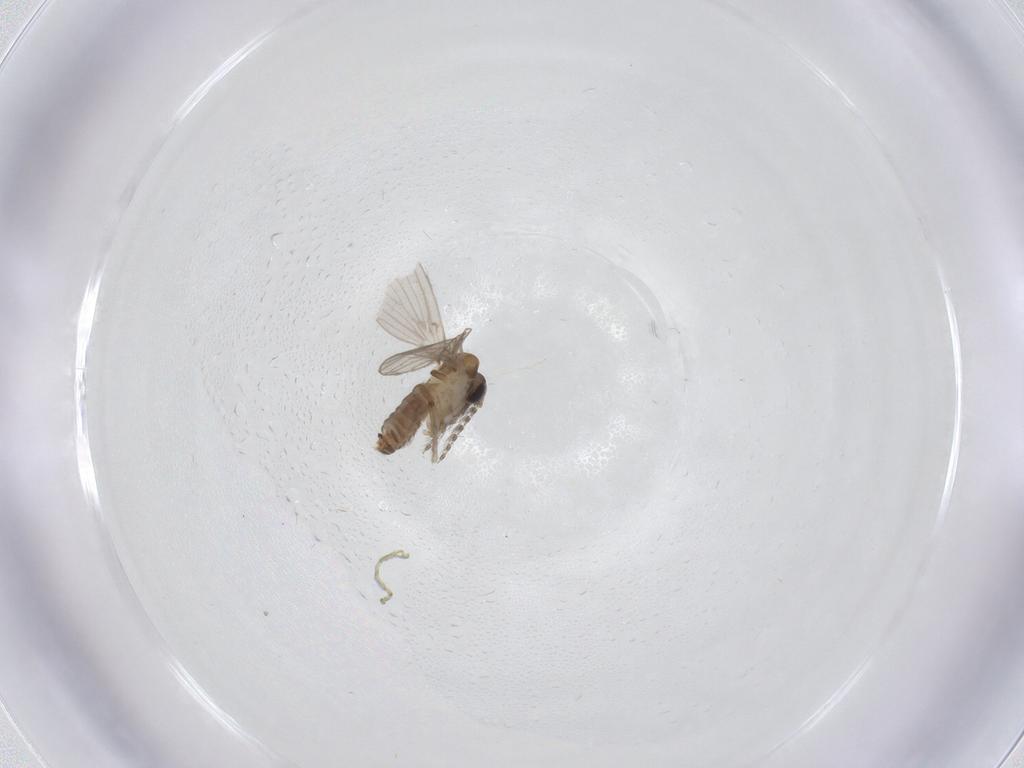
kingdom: Animalia
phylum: Arthropoda
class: Insecta
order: Diptera
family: Psychodidae
